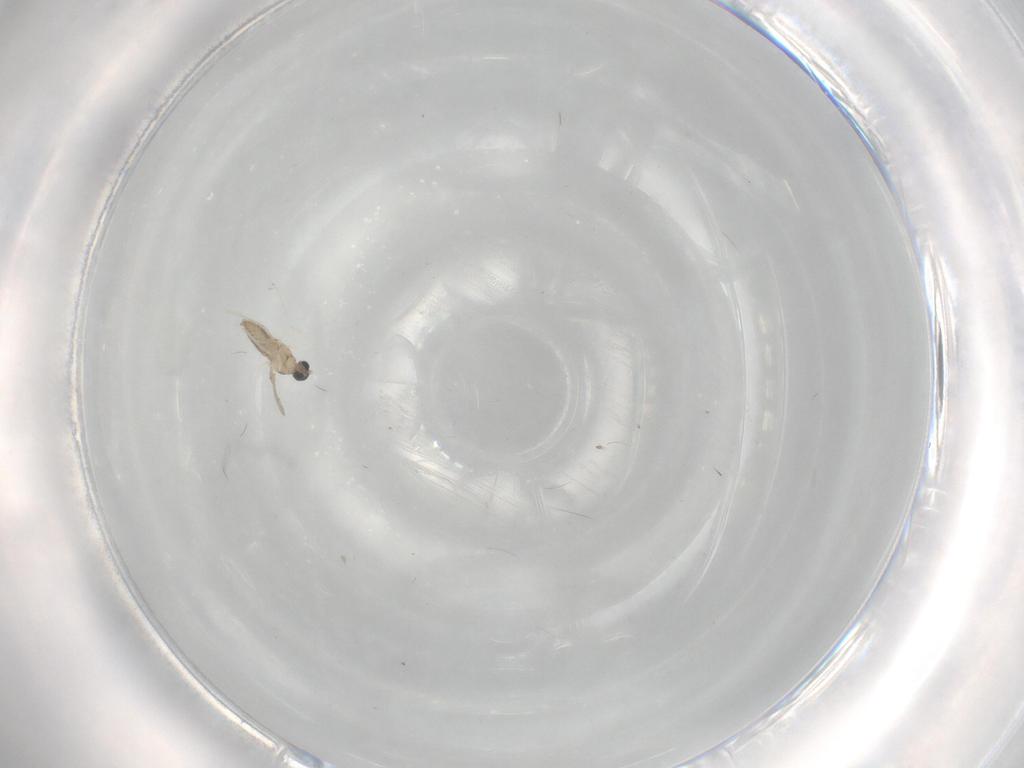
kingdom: Animalia
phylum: Arthropoda
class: Insecta
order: Diptera
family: Cecidomyiidae
